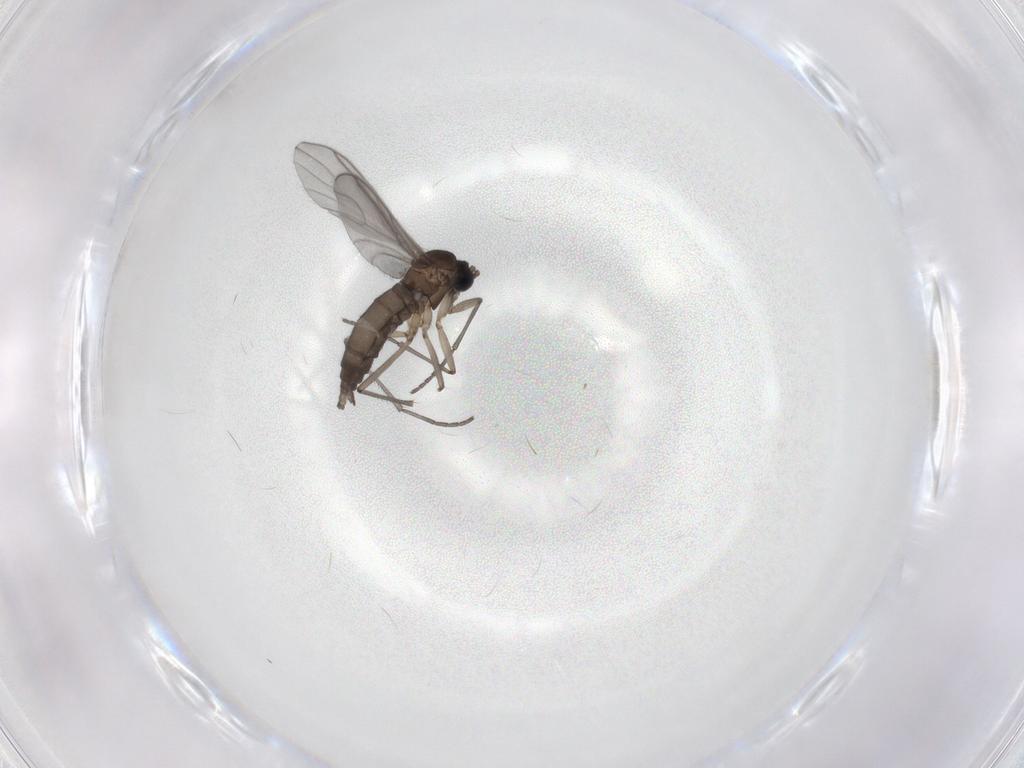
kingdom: Animalia
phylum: Arthropoda
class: Insecta
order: Diptera
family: Sciaridae
